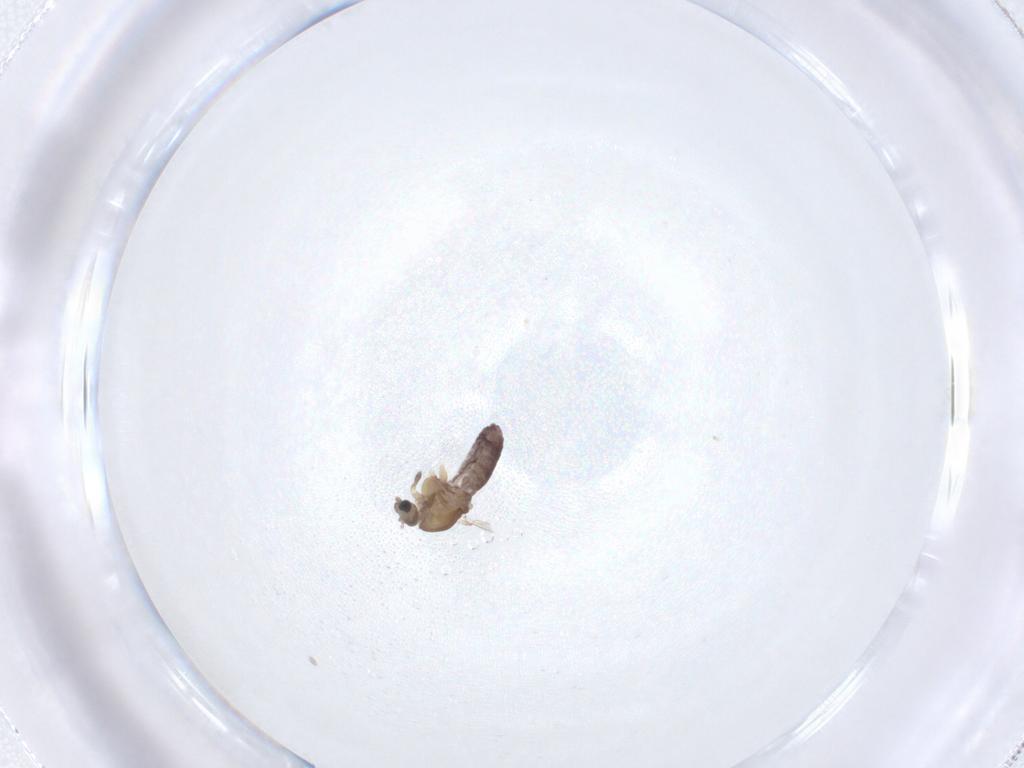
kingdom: Animalia
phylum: Arthropoda
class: Insecta
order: Diptera
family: Chironomidae
